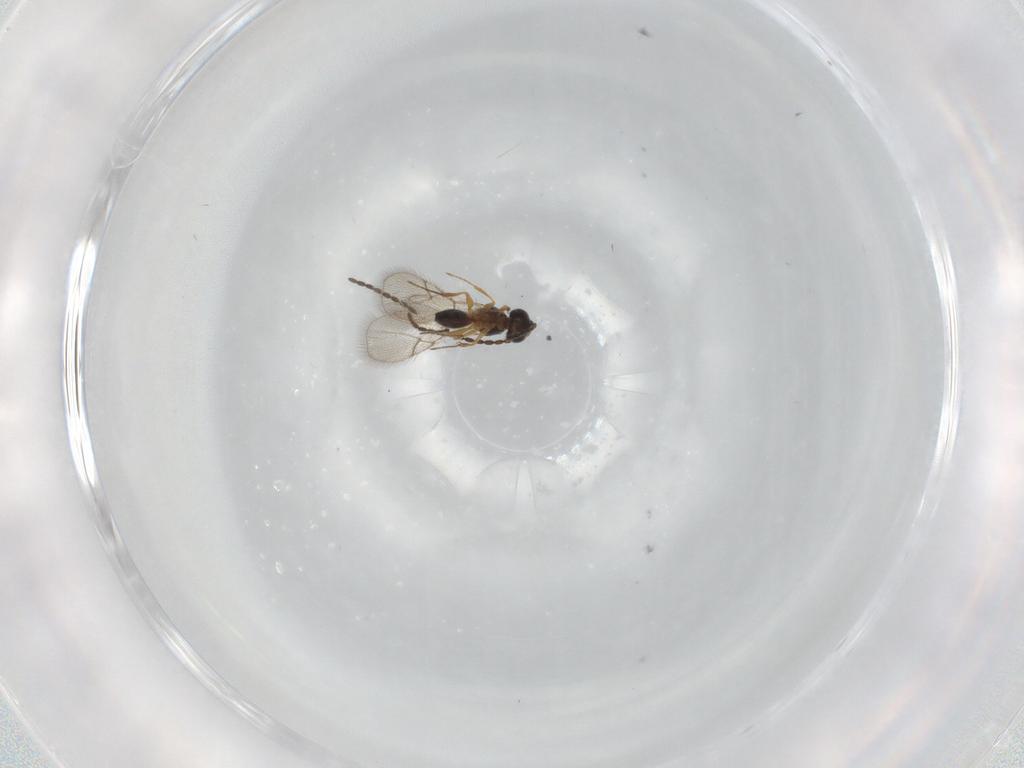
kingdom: Animalia
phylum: Arthropoda
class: Insecta
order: Hymenoptera
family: Figitidae
